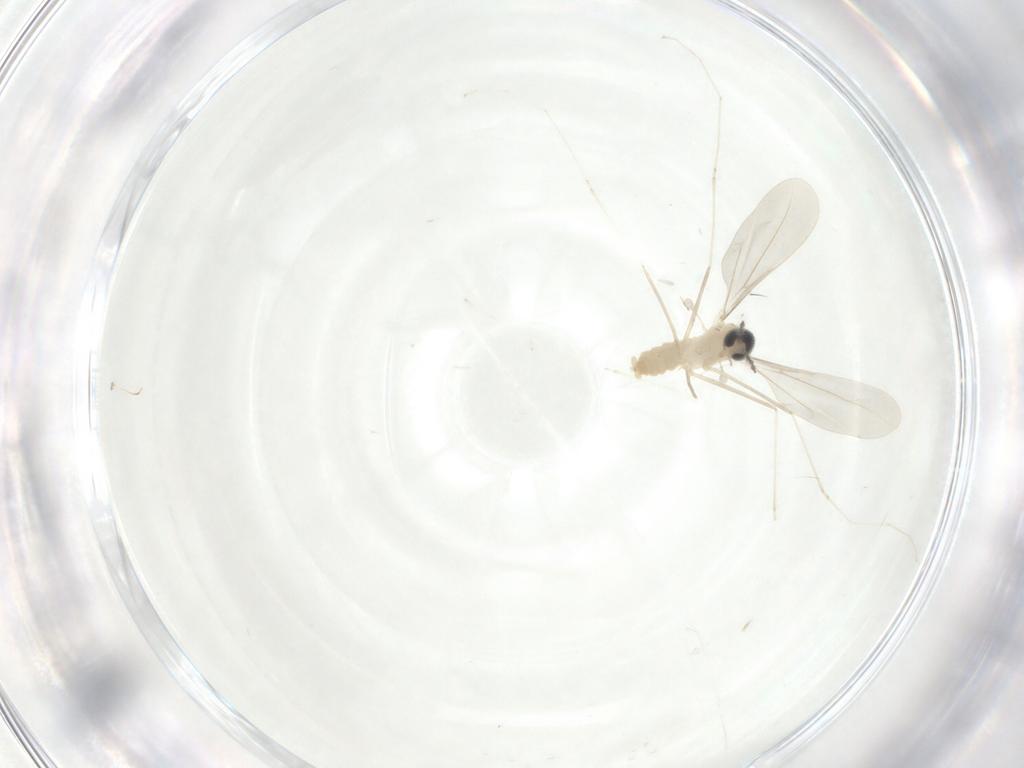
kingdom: Animalia
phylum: Arthropoda
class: Insecta
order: Diptera
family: Cecidomyiidae
